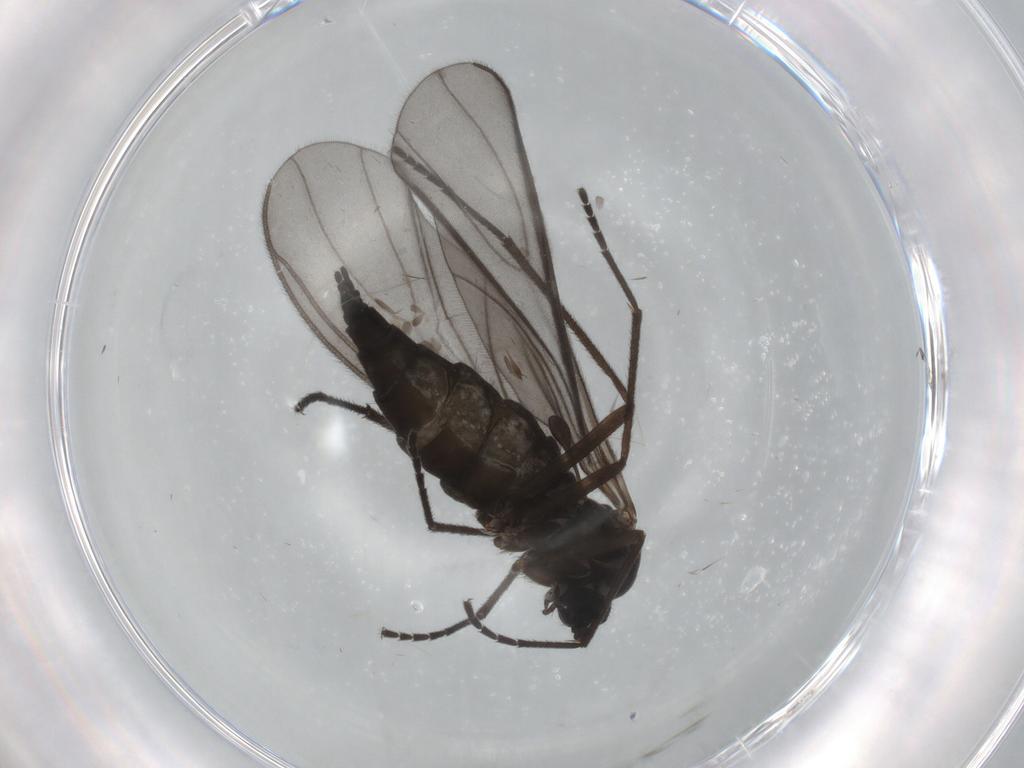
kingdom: Animalia
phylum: Arthropoda
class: Insecta
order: Diptera
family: Sciaridae
